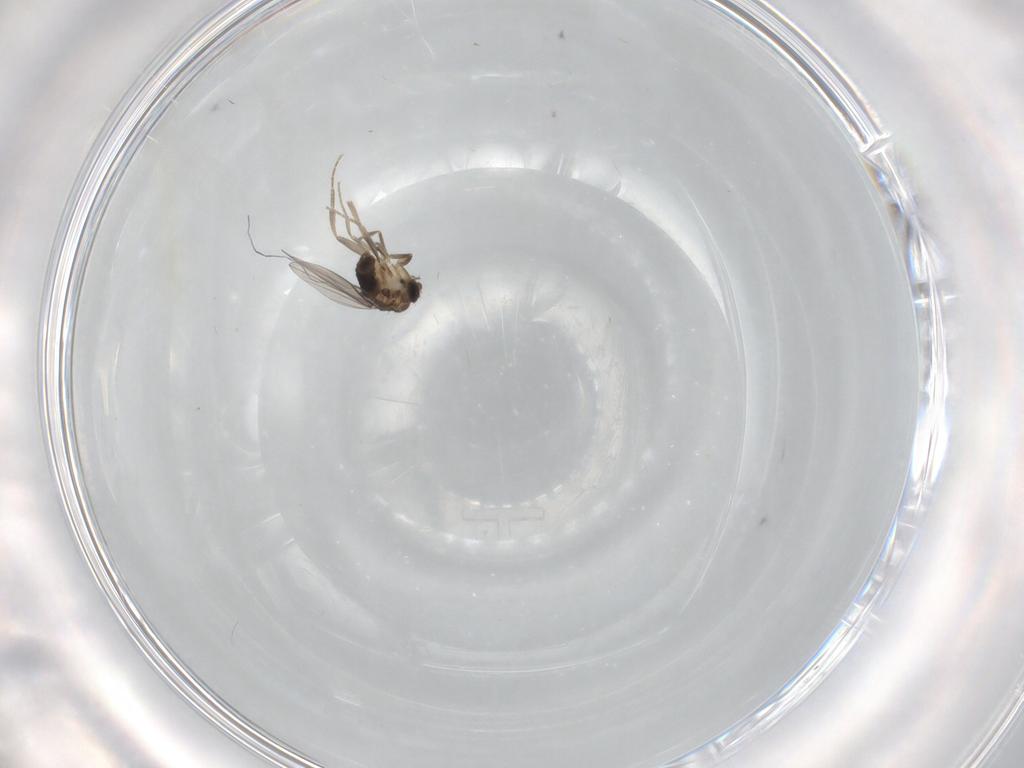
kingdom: Animalia
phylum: Arthropoda
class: Insecta
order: Diptera
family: Phoridae
